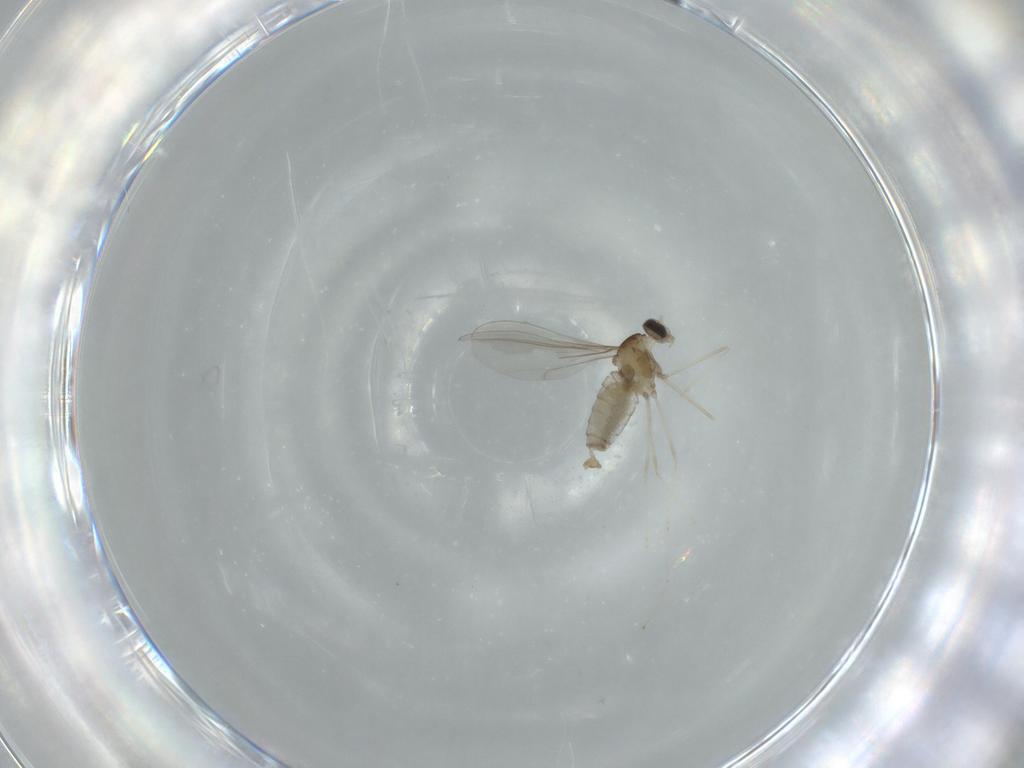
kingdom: Animalia
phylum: Arthropoda
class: Insecta
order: Diptera
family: Cecidomyiidae
